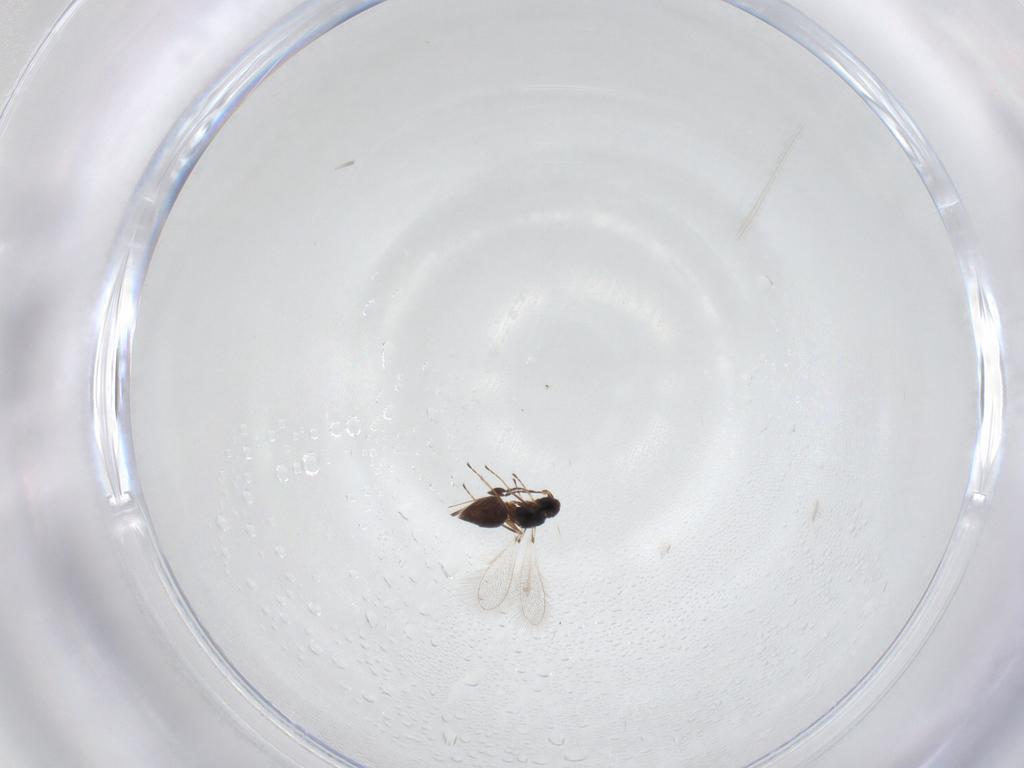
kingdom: Animalia
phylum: Arthropoda
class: Insecta
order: Hymenoptera
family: Mymaridae
